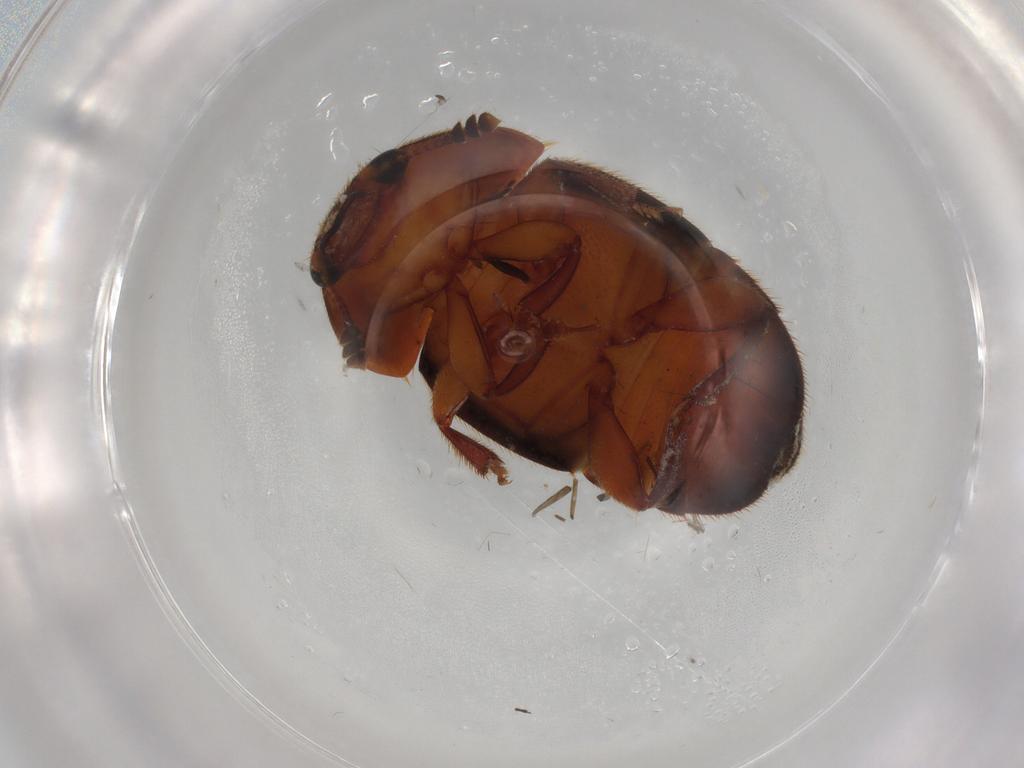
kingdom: Animalia
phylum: Arthropoda
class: Insecta
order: Coleoptera
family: Nitidulidae
